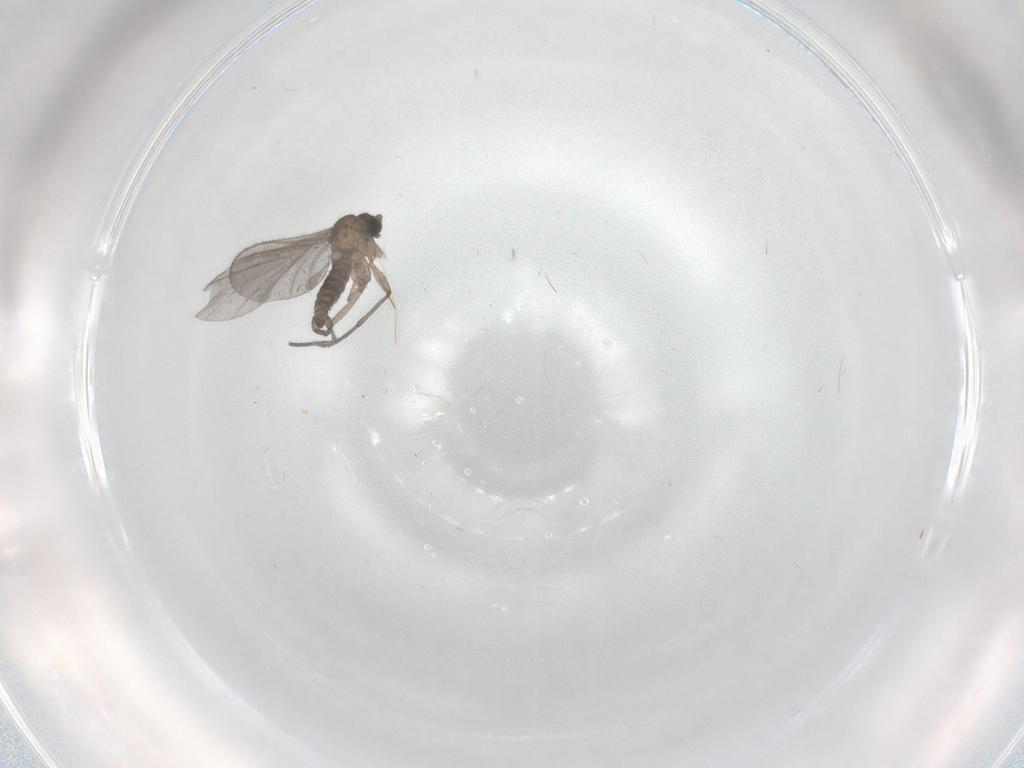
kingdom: Animalia
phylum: Arthropoda
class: Insecta
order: Diptera
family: Sciaridae
